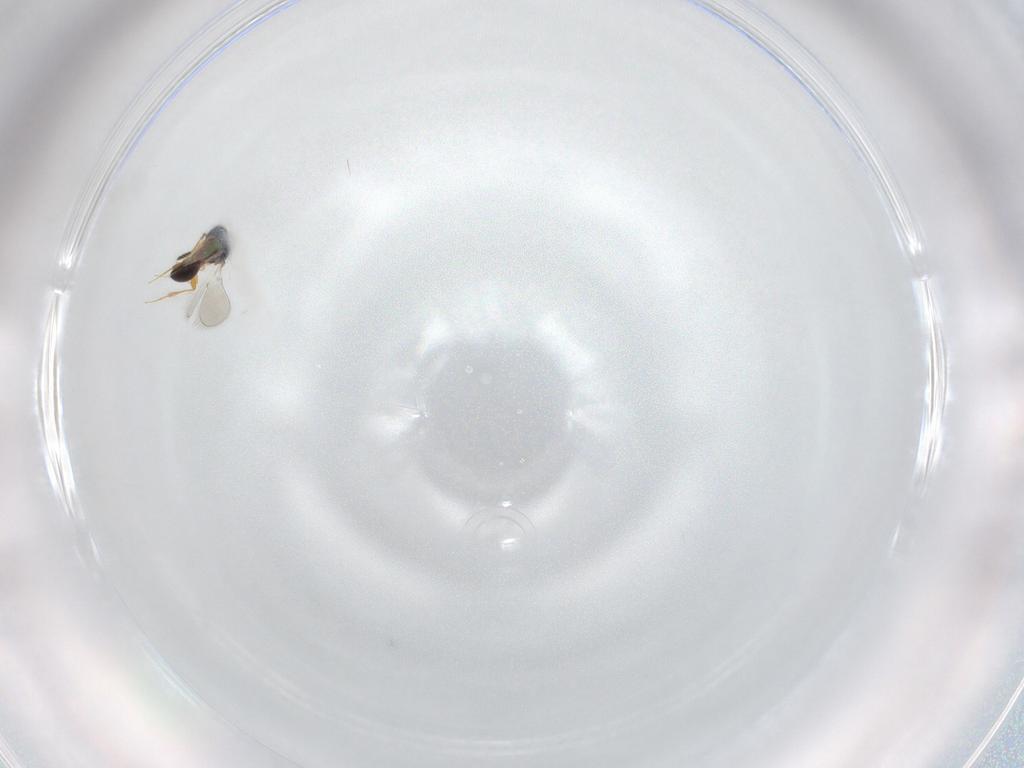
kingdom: Animalia
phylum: Arthropoda
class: Insecta
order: Hymenoptera
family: Platygastridae
